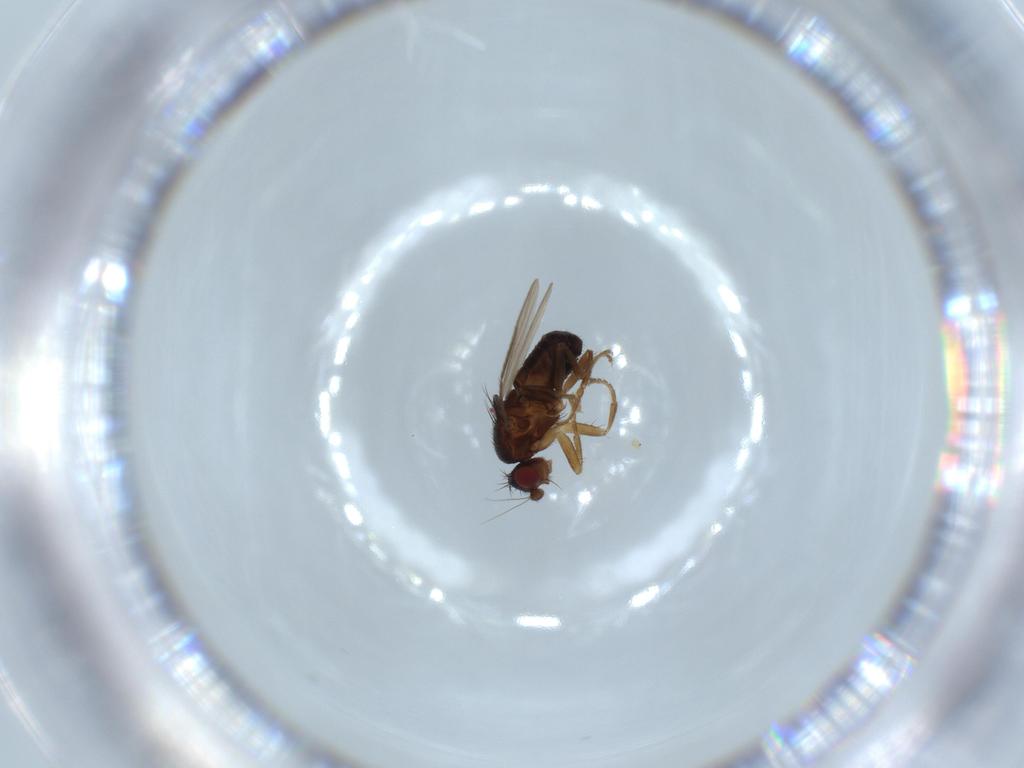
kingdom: Animalia
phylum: Arthropoda
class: Insecta
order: Diptera
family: Sphaeroceridae
